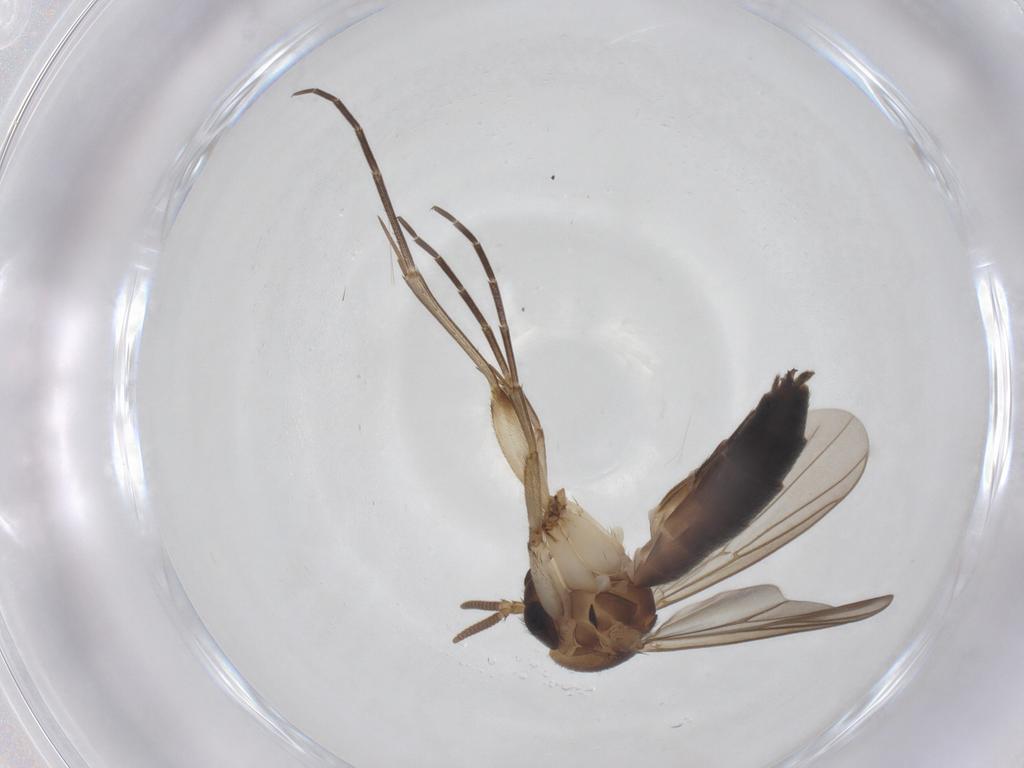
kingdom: Animalia
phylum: Arthropoda
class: Insecta
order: Diptera
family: Mycetophilidae
